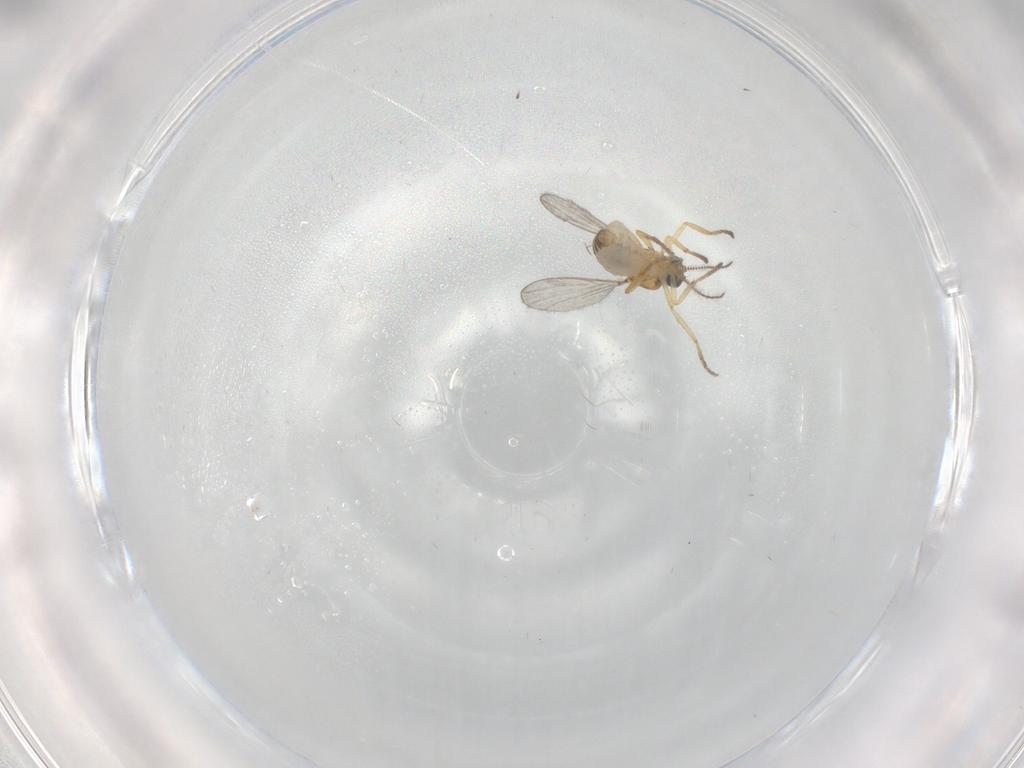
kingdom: Animalia
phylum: Arthropoda
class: Insecta
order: Diptera
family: Ceratopogonidae
